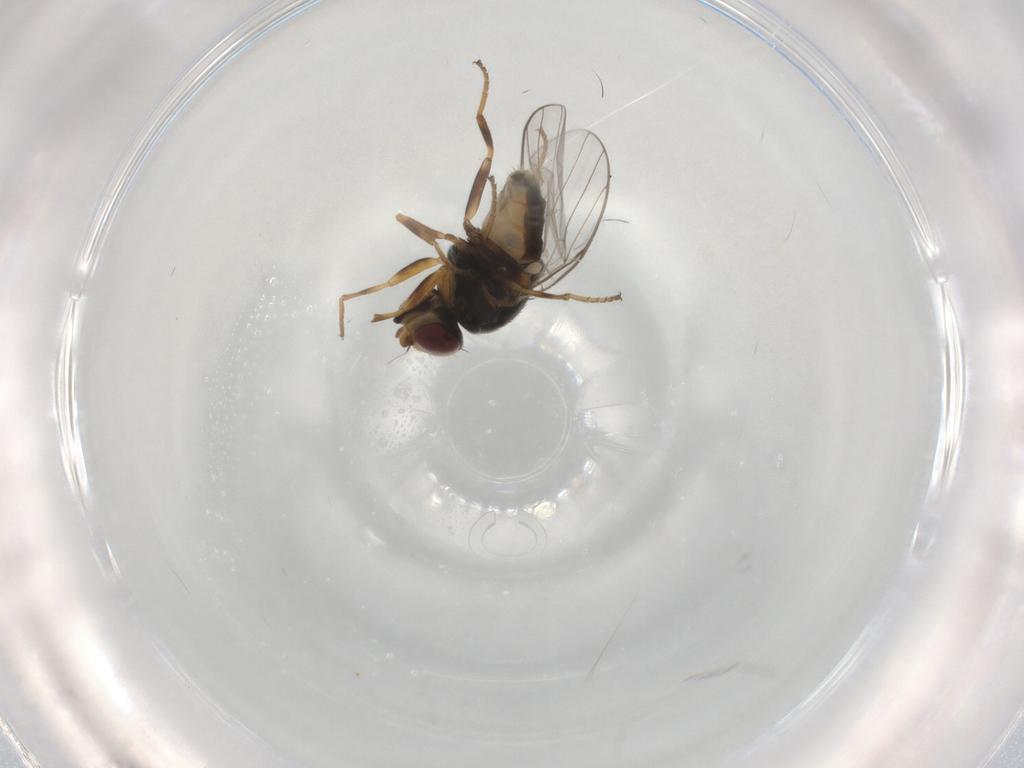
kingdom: Animalia
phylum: Arthropoda
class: Insecta
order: Diptera
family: Chloropidae
